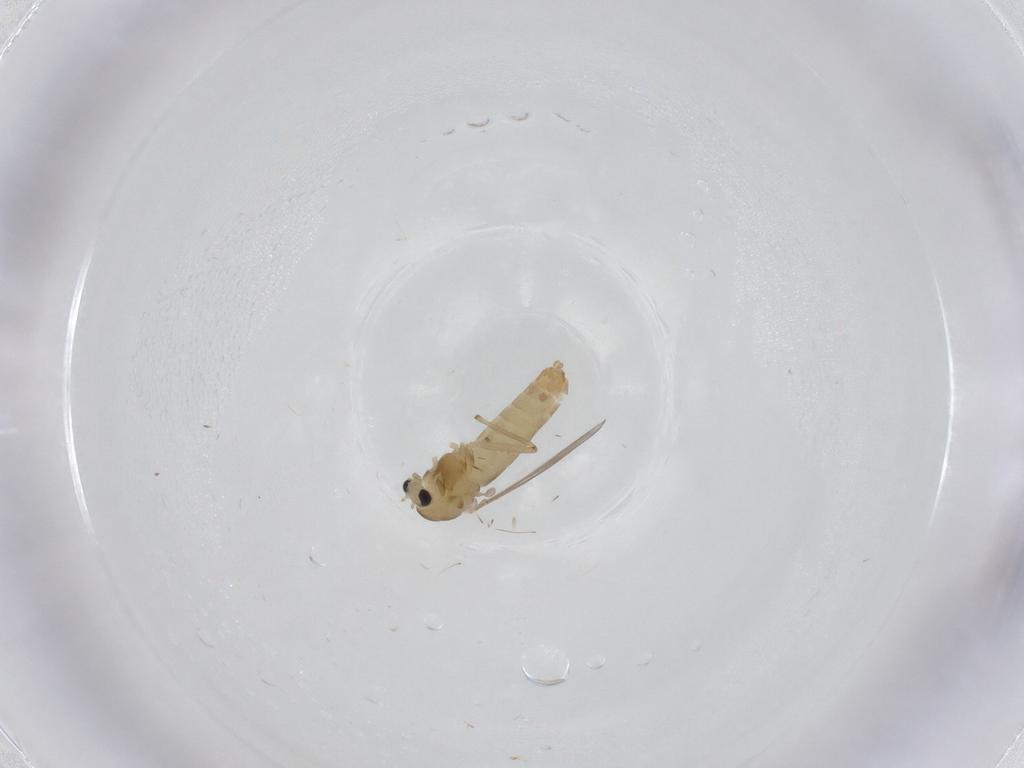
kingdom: Animalia
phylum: Arthropoda
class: Insecta
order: Diptera
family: Chironomidae
